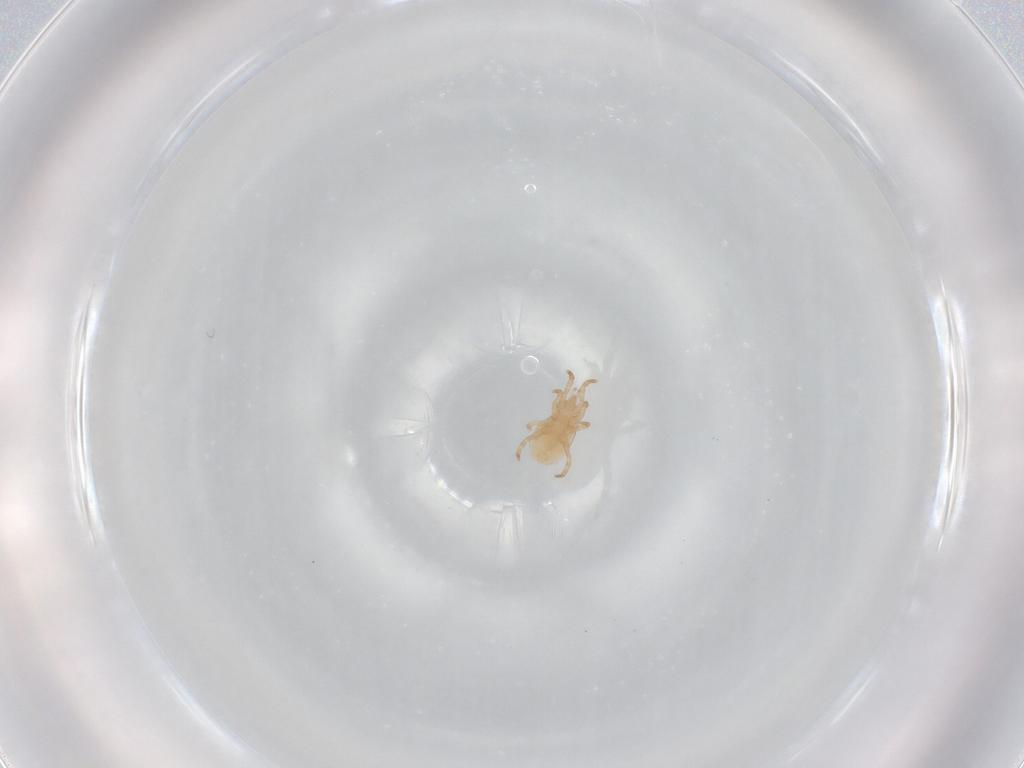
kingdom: Animalia
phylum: Arthropoda
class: Arachnida
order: Mesostigmata
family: Laelapidae
